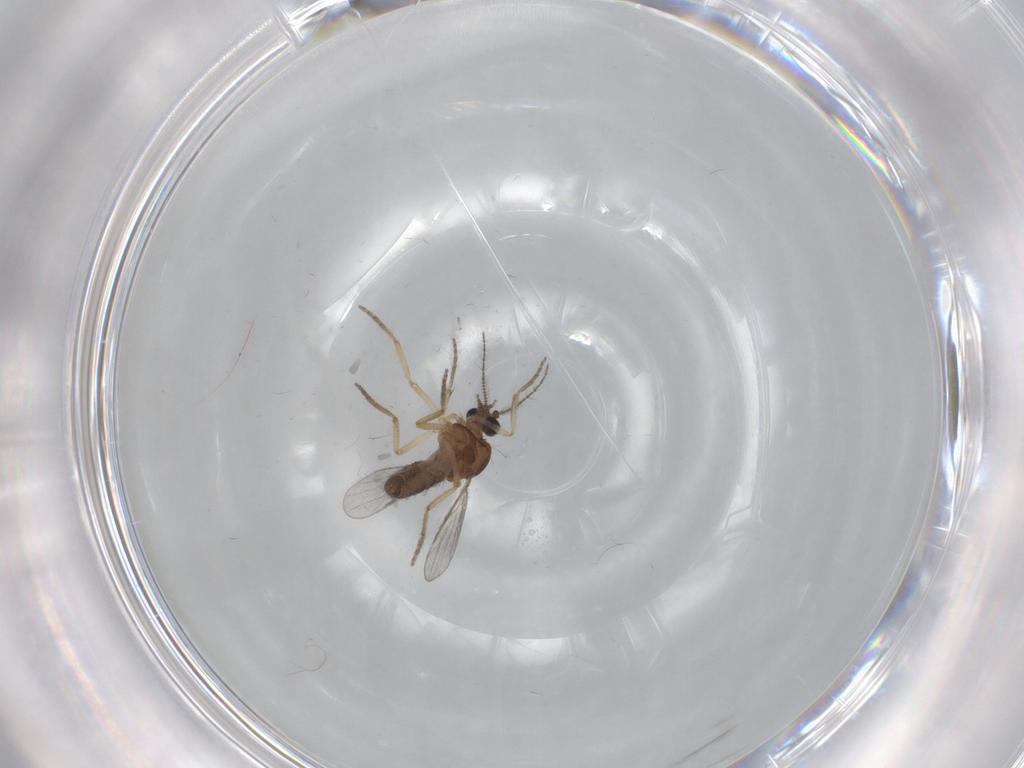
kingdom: Animalia
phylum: Arthropoda
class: Insecta
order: Diptera
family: Ceratopogonidae
